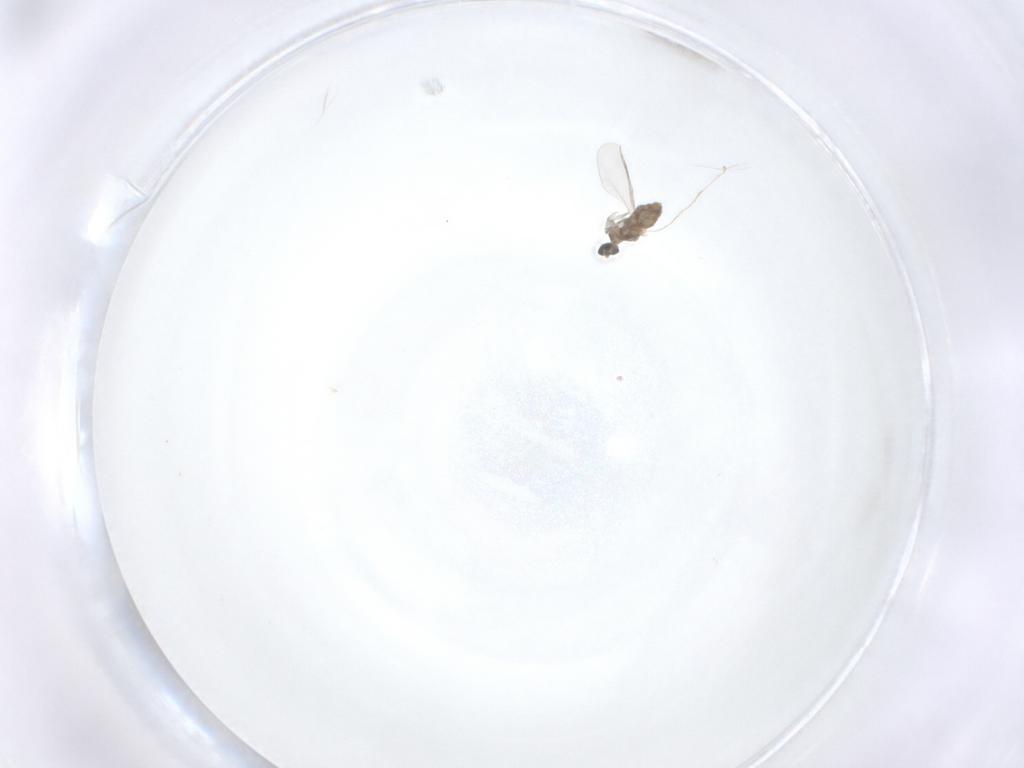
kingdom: Animalia
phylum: Arthropoda
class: Insecta
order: Diptera
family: Cecidomyiidae
